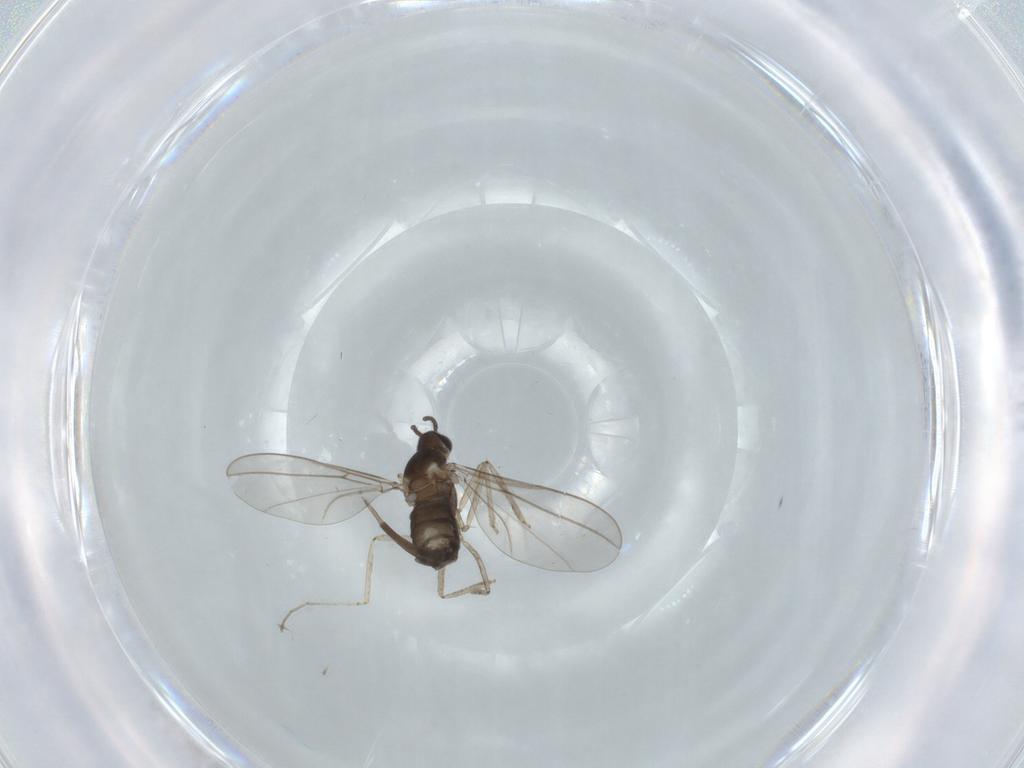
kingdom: Animalia
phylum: Arthropoda
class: Insecta
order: Diptera
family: Cecidomyiidae
